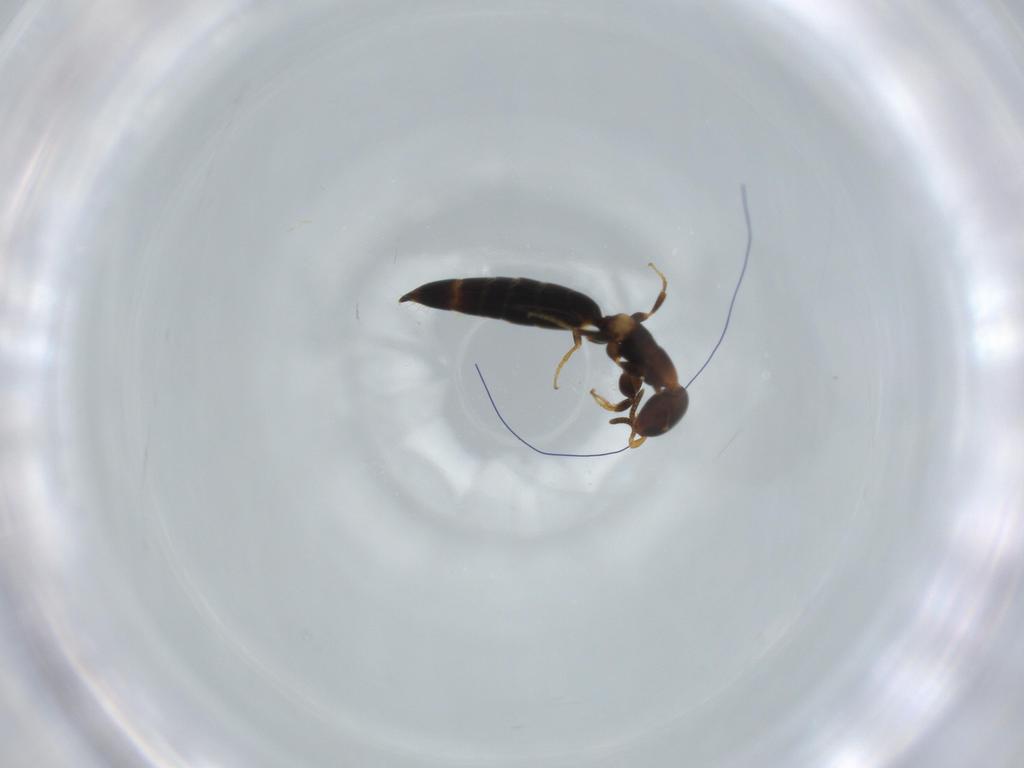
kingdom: Animalia
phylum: Arthropoda
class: Insecta
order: Hymenoptera
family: Bethylidae
